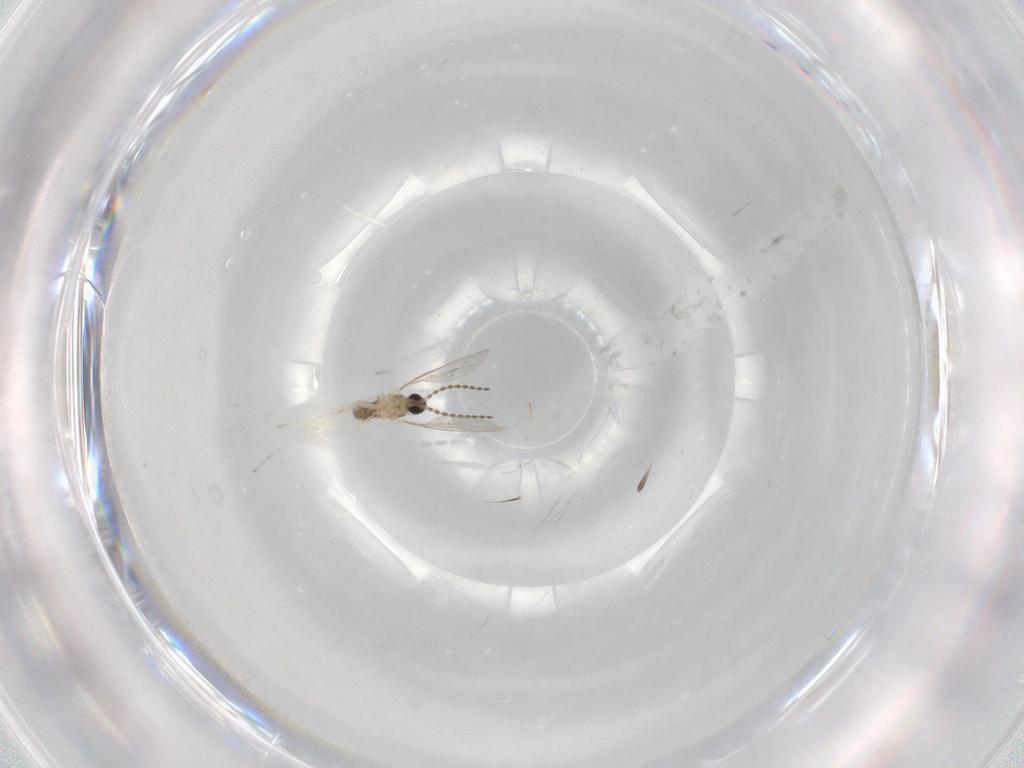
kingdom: Animalia
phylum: Arthropoda
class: Insecta
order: Diptera
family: Cecidomyiidae
